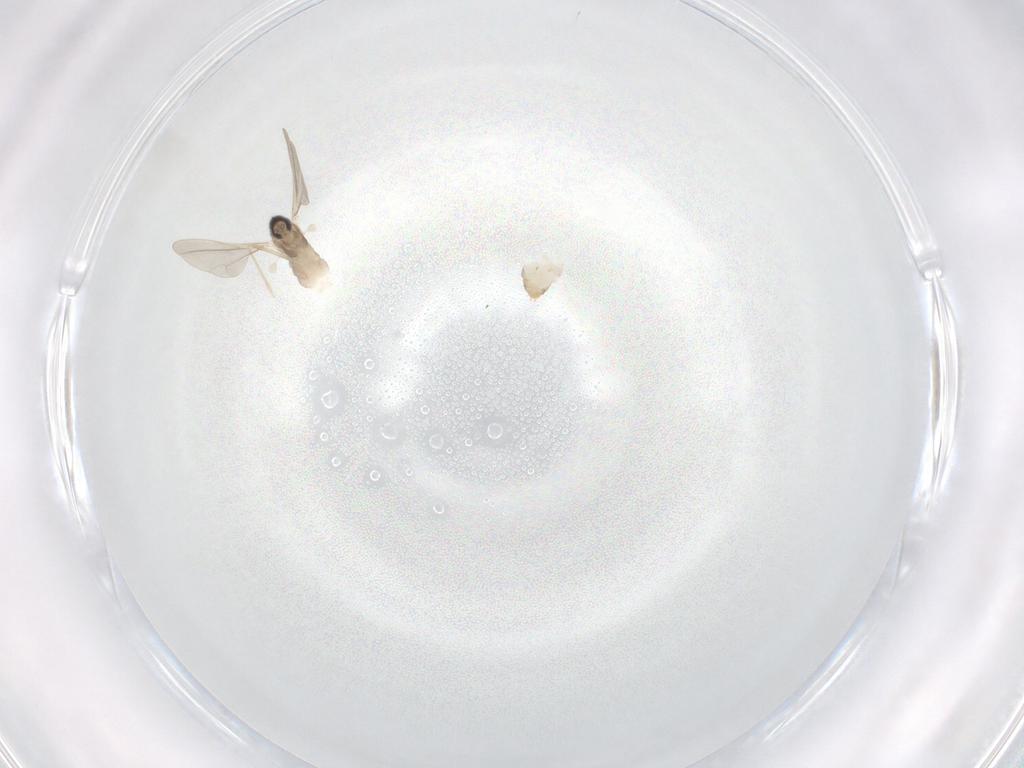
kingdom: Animalia
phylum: Arthropoda
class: Insecta
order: Diptera
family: Cecidomyiidae
